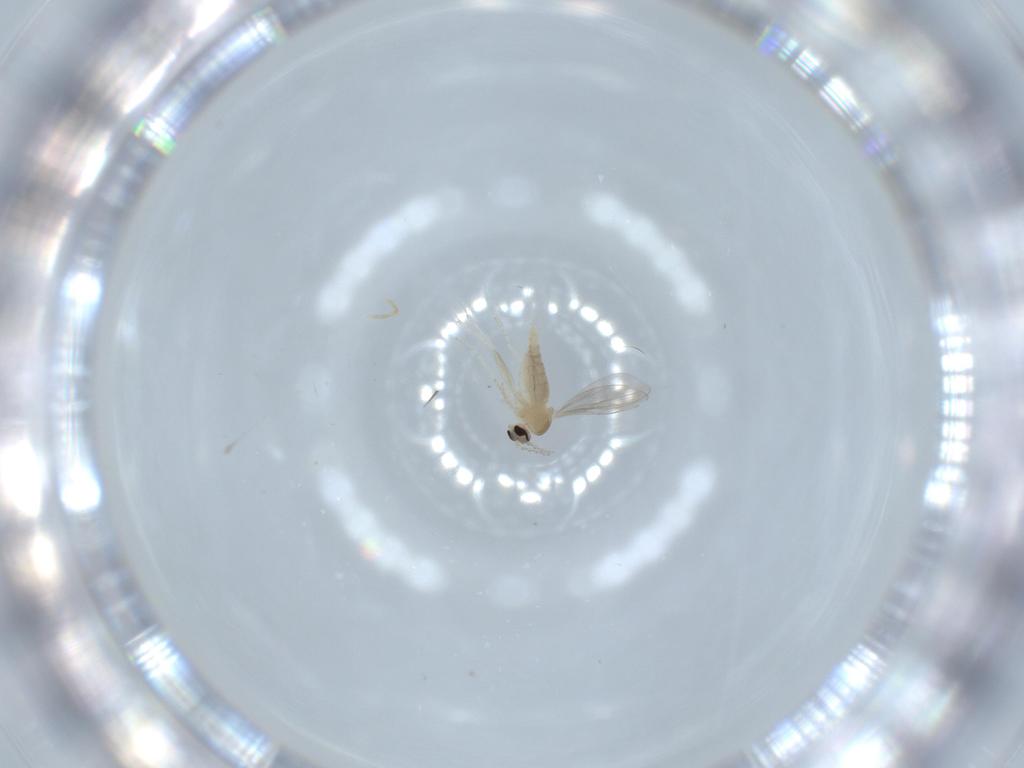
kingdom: Animalia
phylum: Arthropoda
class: Insecta
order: Diptera
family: Cecidomyiidae
